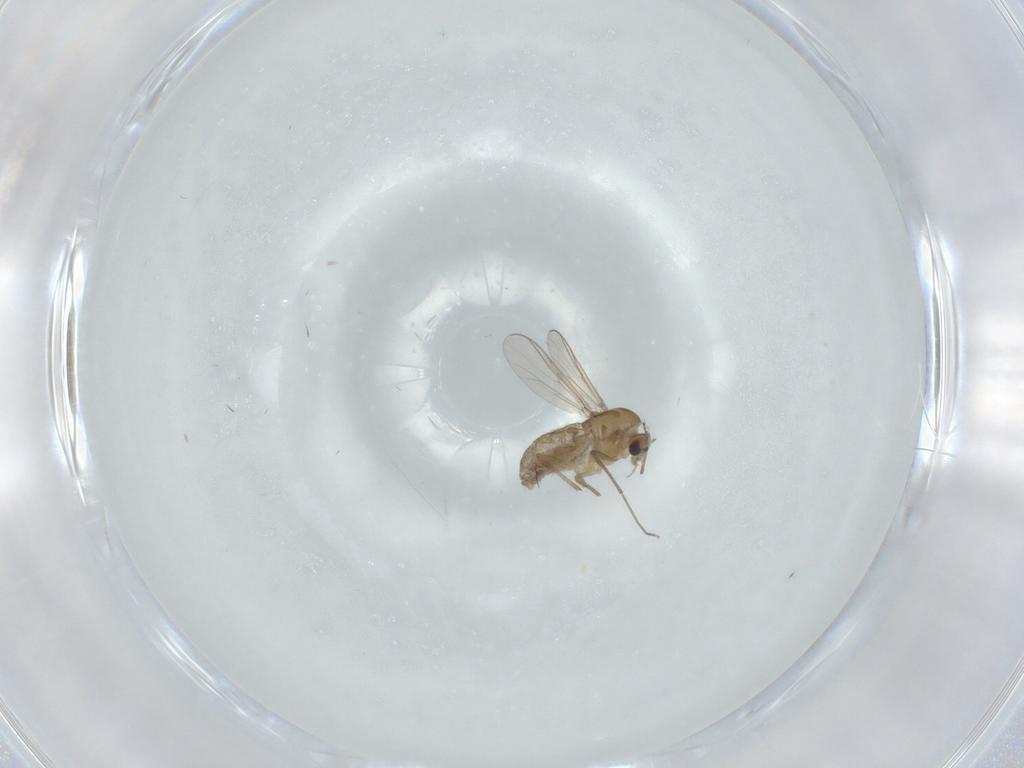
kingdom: Animalia
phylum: Arthropoda
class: Insecta
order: Diptera
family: Chironomidae
